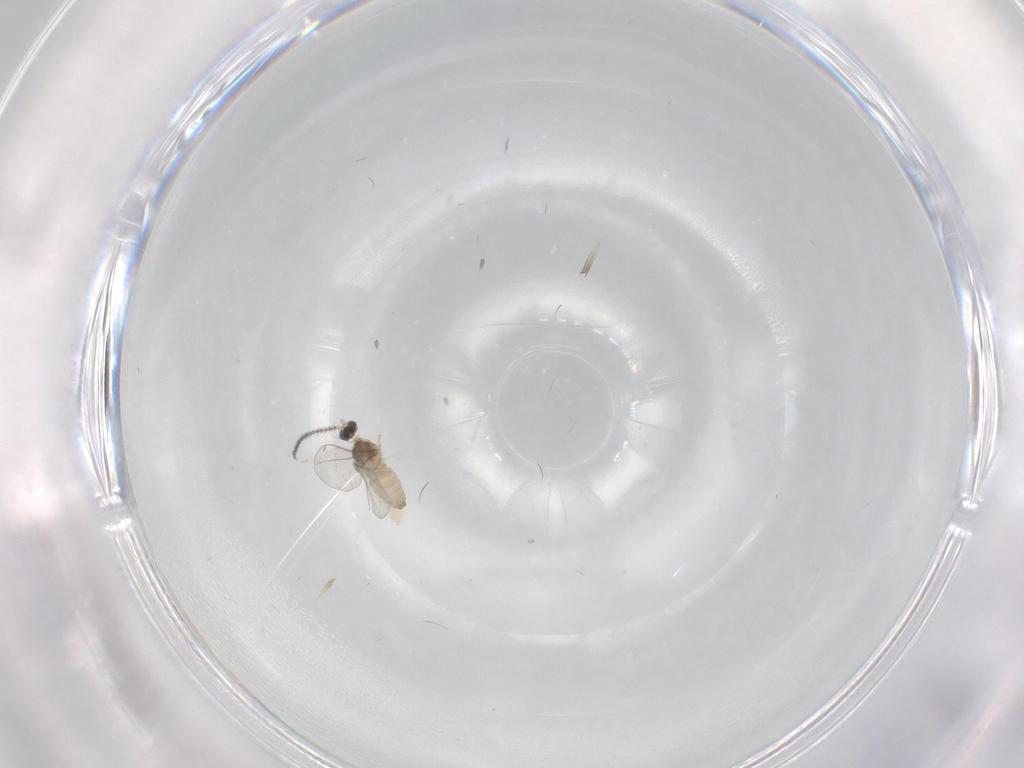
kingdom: Animalia
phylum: Arthropoda
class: Insecta
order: Diptera
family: Cecidomyiidae
